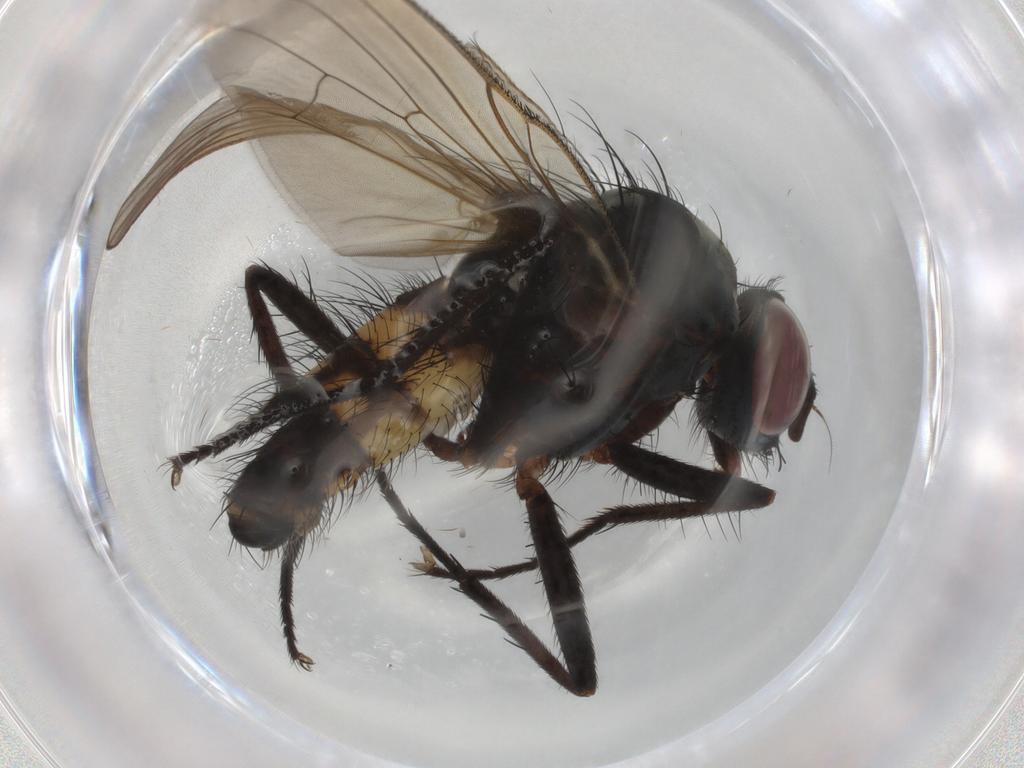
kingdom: Animalia
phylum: Arthropoda
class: Insecta
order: Diptera
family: Anthomyiidae
